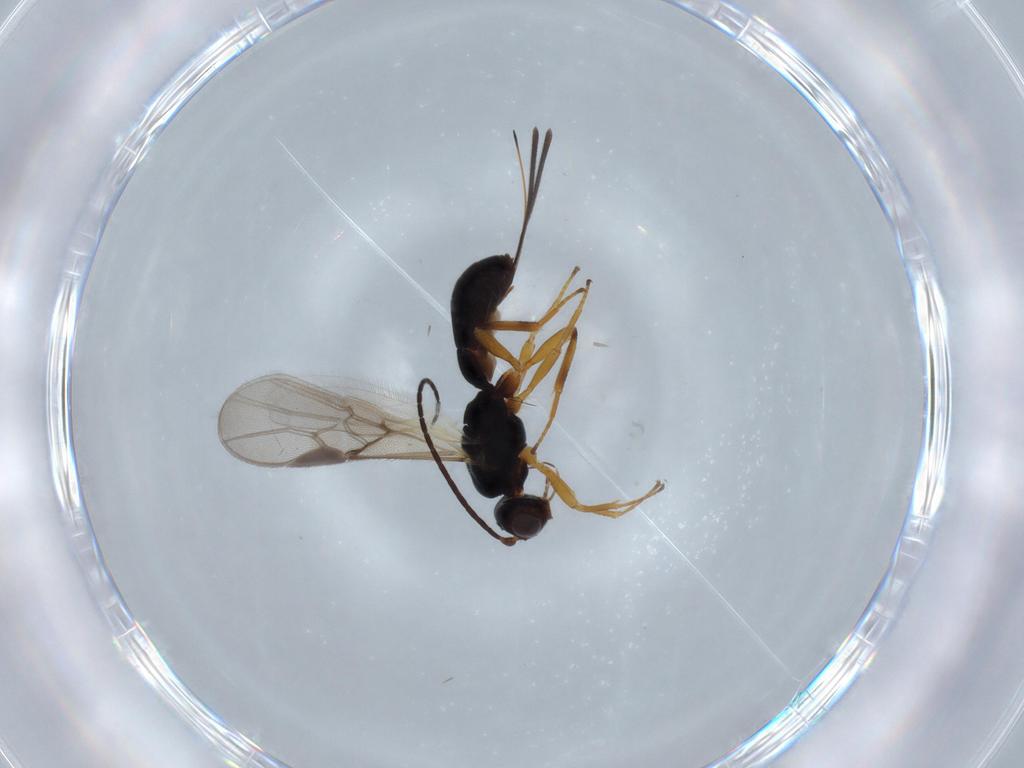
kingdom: Animalia
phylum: Arthropoda
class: Insecta
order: Hymenoptera
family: Braconidae
